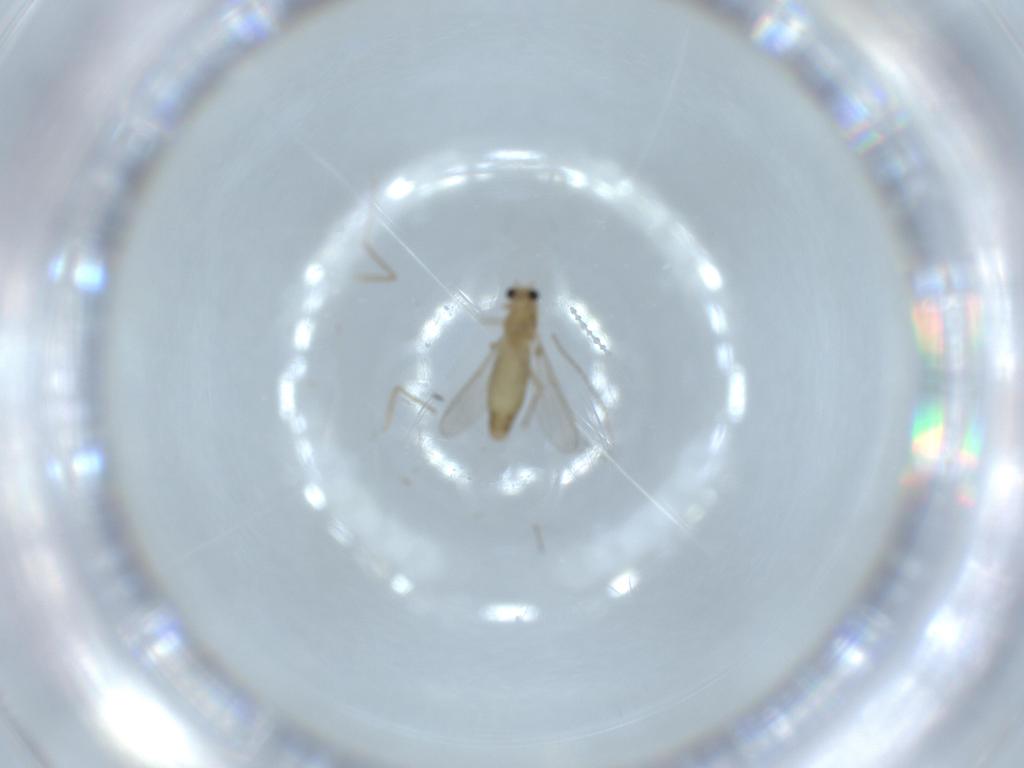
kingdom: Animalia
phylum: Arthropoda
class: Insecta
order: Diptera
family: Chironomidae
